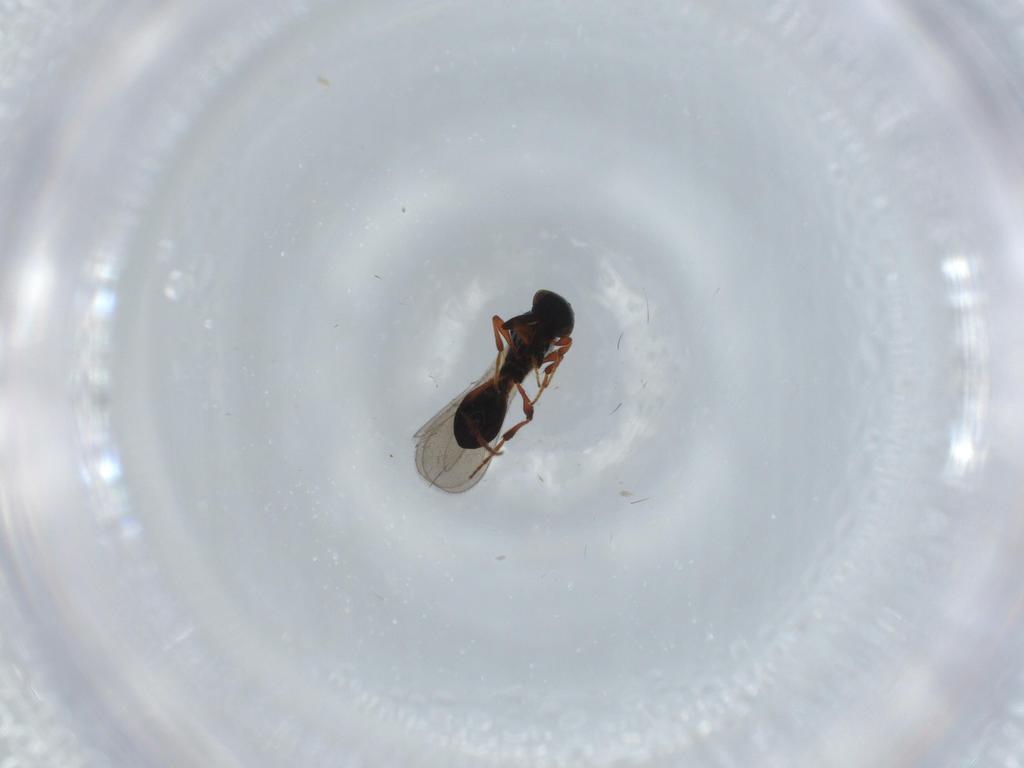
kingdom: Animalia
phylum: Arthropoda
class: Insecta
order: Hymenoptera
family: Platygastridae
